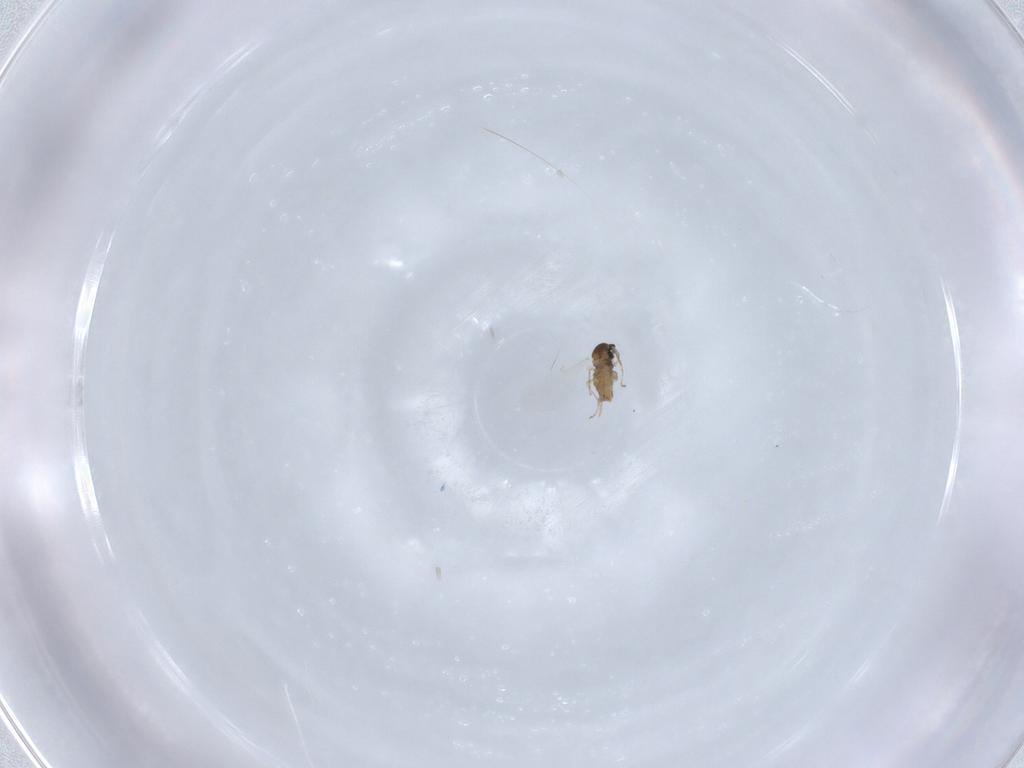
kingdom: Animalia
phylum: Arthropoda
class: Insecta
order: Diptera
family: Cecidomyiidae
